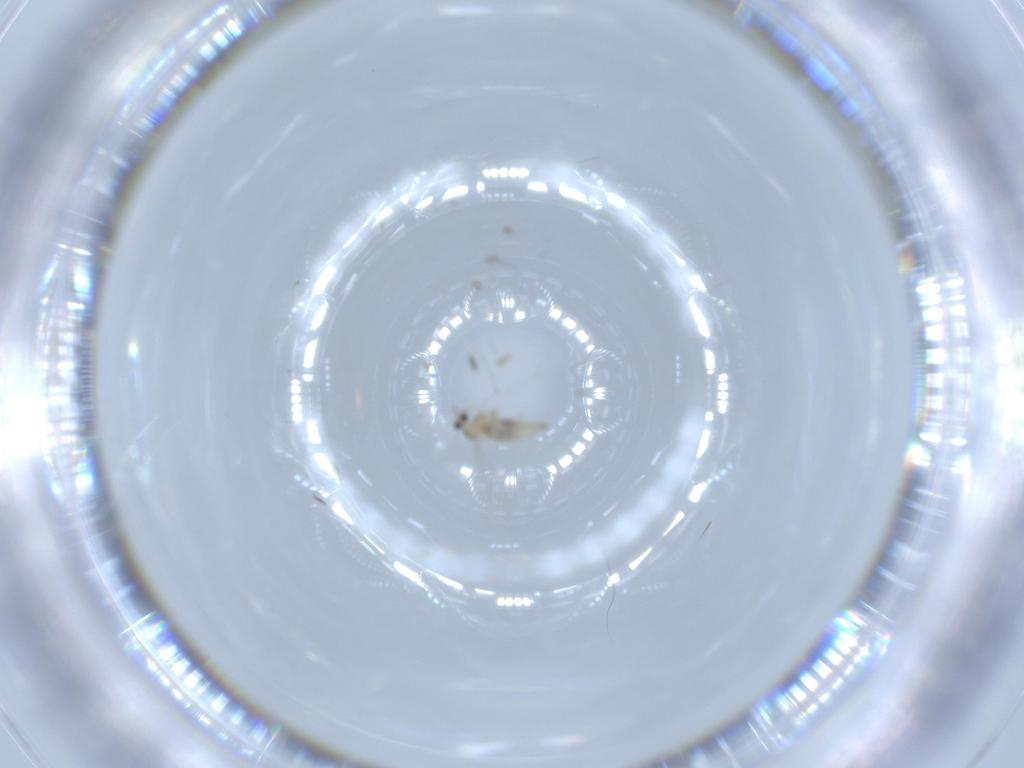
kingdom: Animalia
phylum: Arthropoda
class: Insecta
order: Diptera
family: Cecidomyiidae
